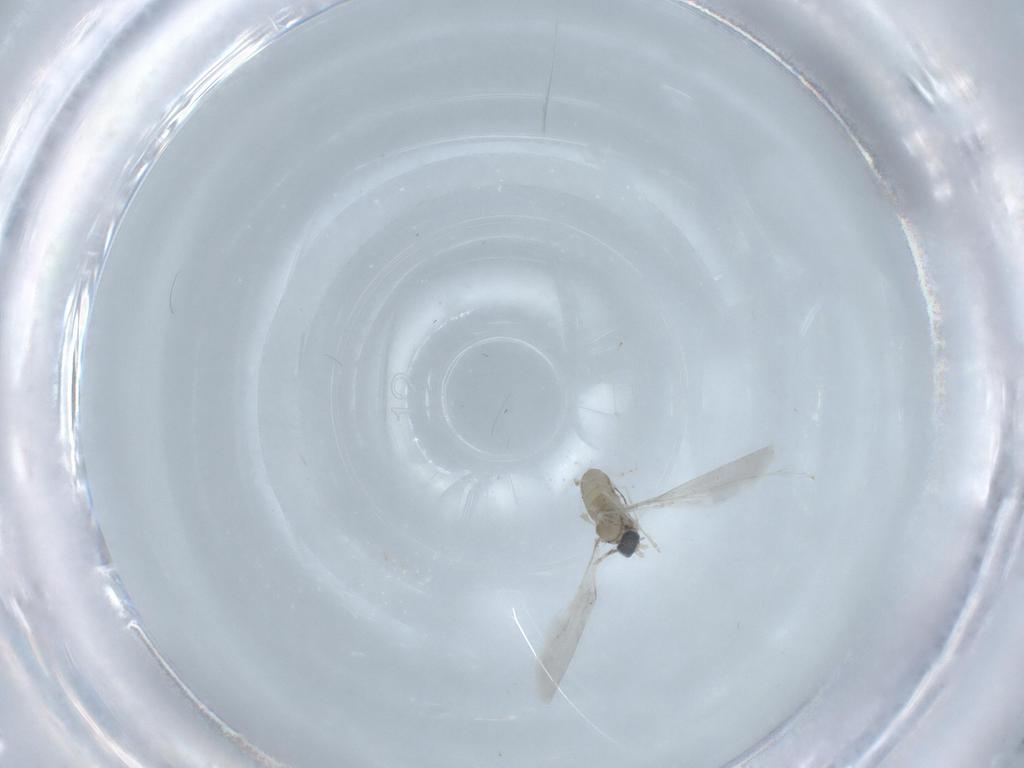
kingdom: Animalia
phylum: Arthropoda
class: Insecta
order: Diptera
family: Cecidomyiidae
